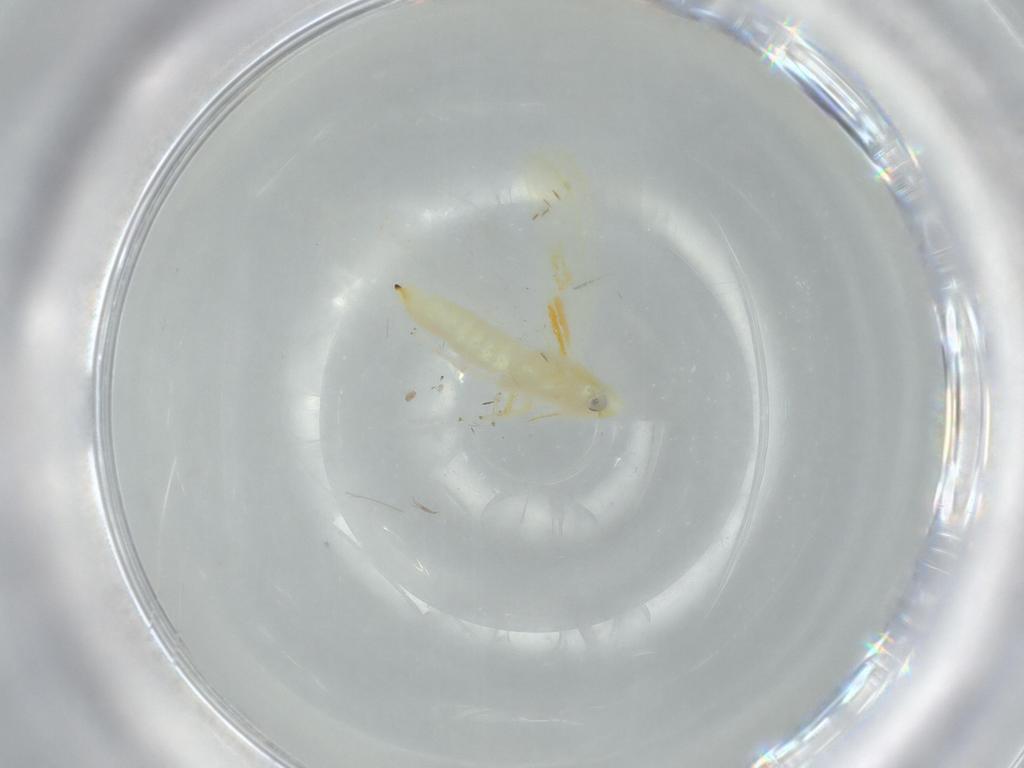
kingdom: Animalia
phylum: Arthropoda
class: Insecta
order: Hemiptera
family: Cicadellidae
